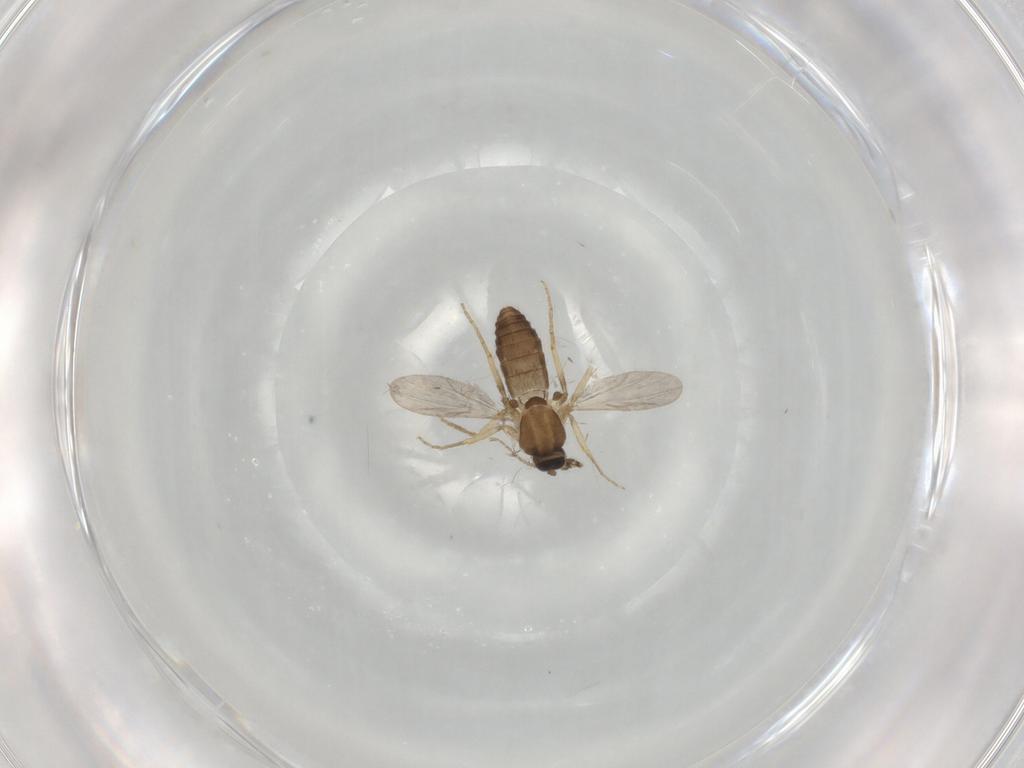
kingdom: Animalia
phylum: Arthropoda
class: Insecta
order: Diptera
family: Ceratopogonidae
